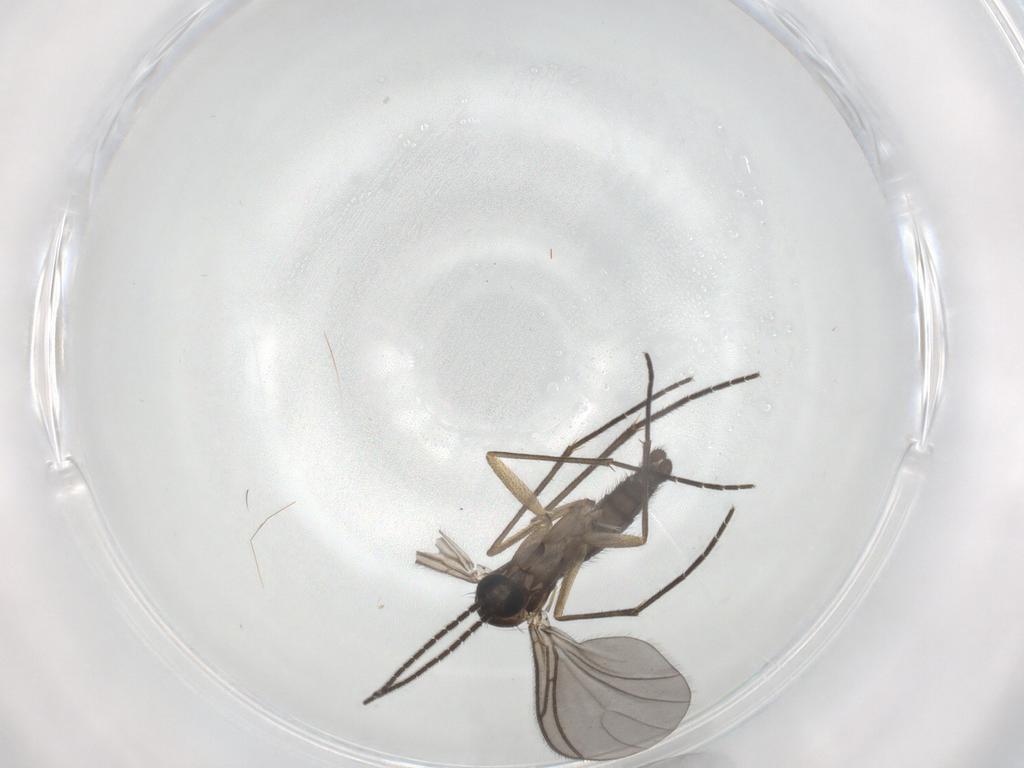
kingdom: Animalia
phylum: Arthropoda
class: Insecta
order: Diptera
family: Sciaridae
